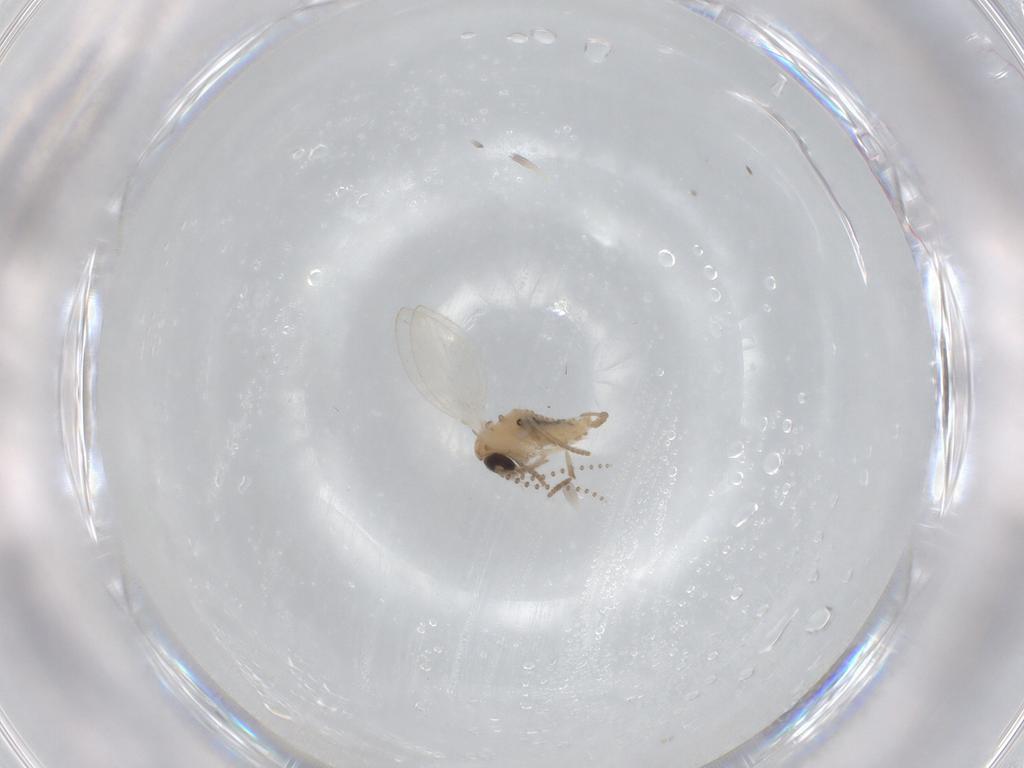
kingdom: Animalia
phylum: Arthropoda
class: Insecta
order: Diptera
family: Psychodidae
